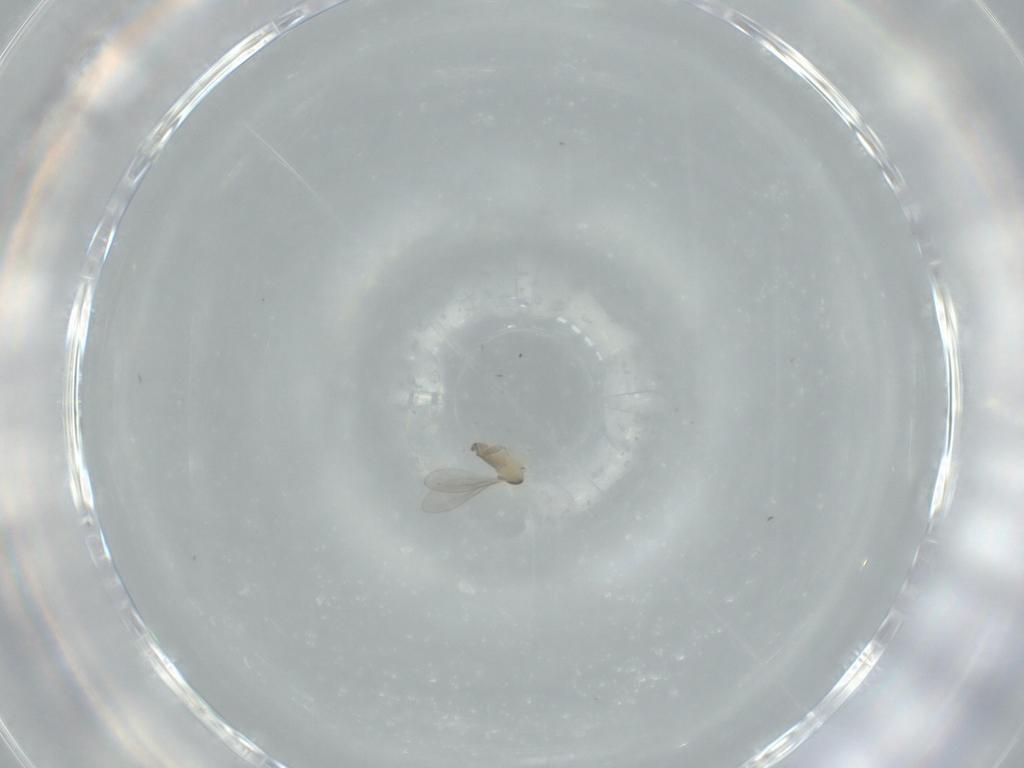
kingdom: Animalia
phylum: Arthropoda
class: Insecta
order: Diptera
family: Cecidomyiidae
